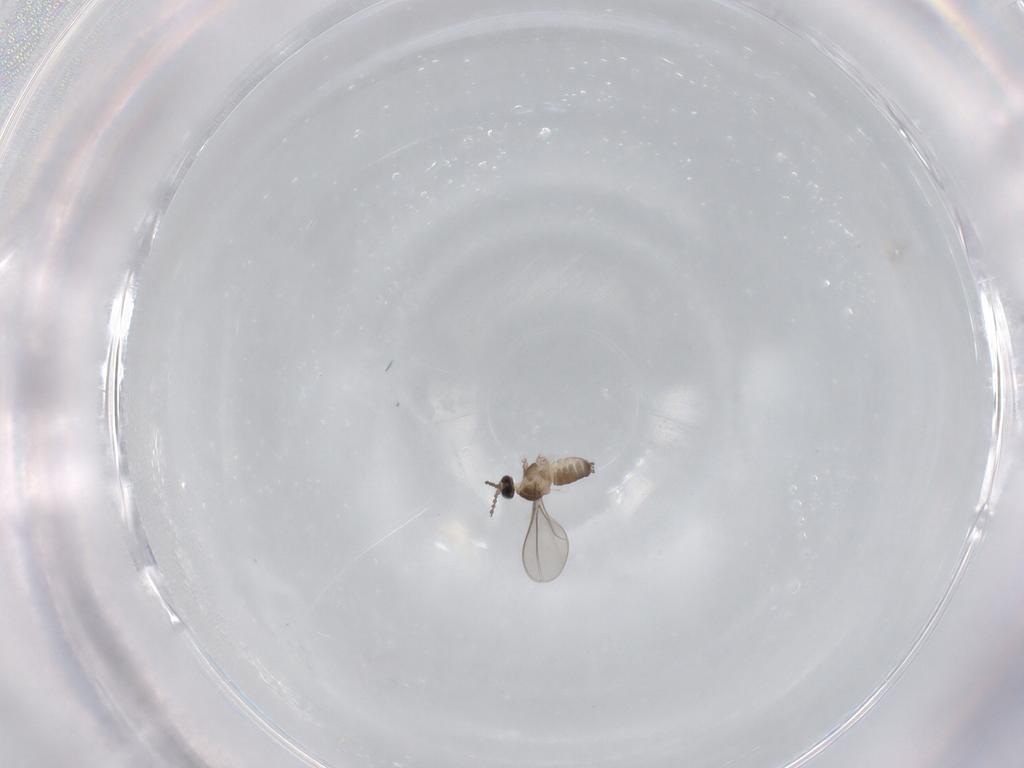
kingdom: Animalia
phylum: Arthropoda
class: Insecta
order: Diptera
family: Cecidomyiidae
